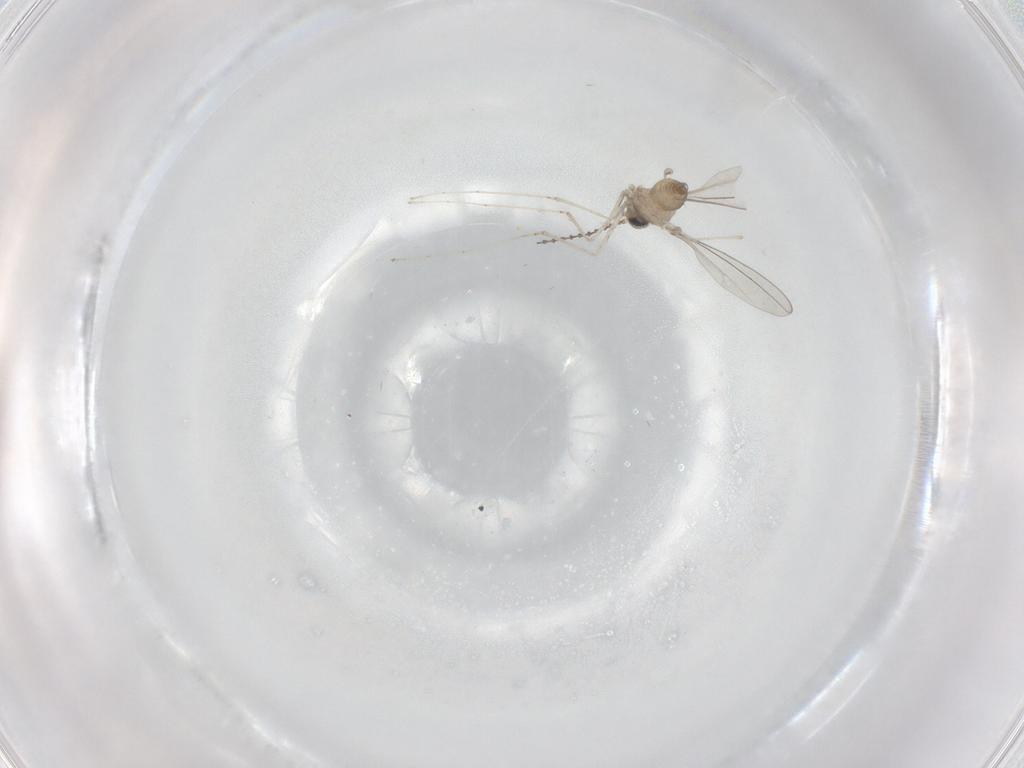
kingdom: Animalia
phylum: Arthropoda
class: Insecta
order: Diptera
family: Cecidomyiidae
